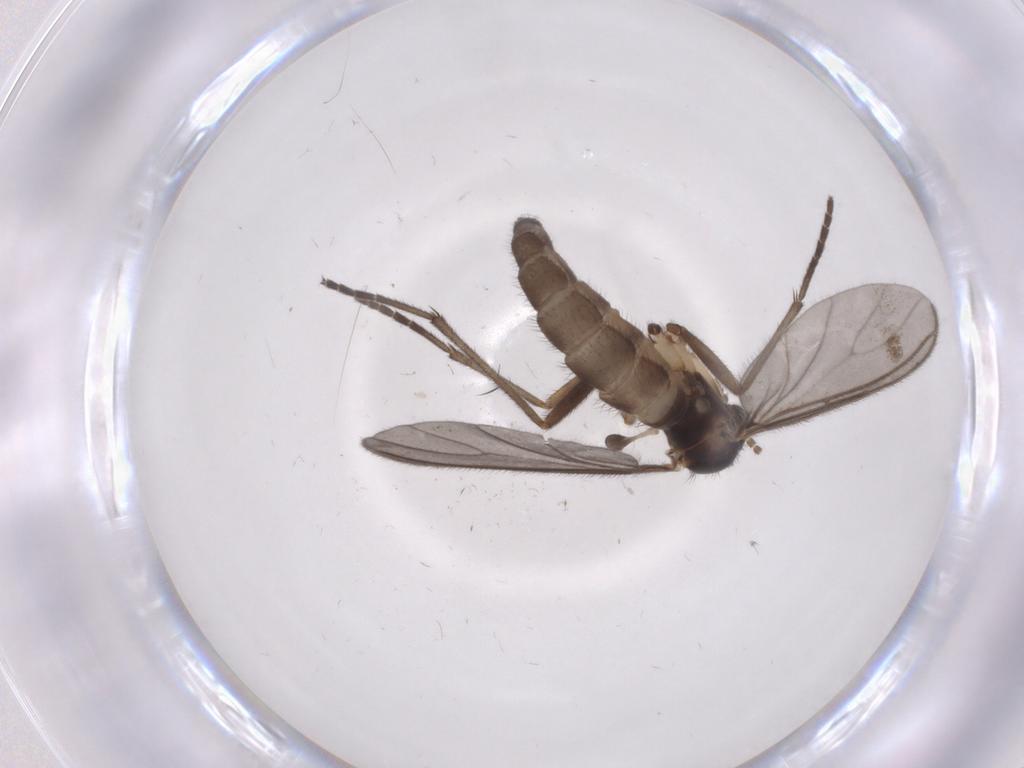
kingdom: Animalia
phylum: Arthropoda
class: Insecta
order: Diptera
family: Sciaridae
